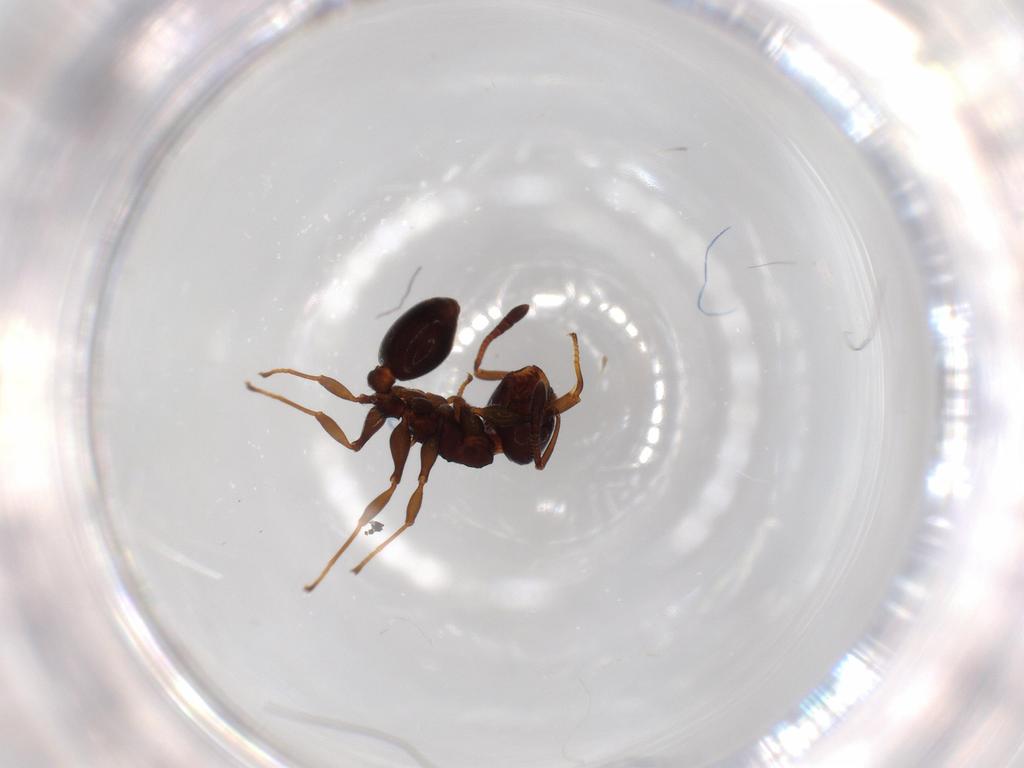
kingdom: Animalia
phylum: Arthropoda
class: Insecta
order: Hymenoptera
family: Formicidae
